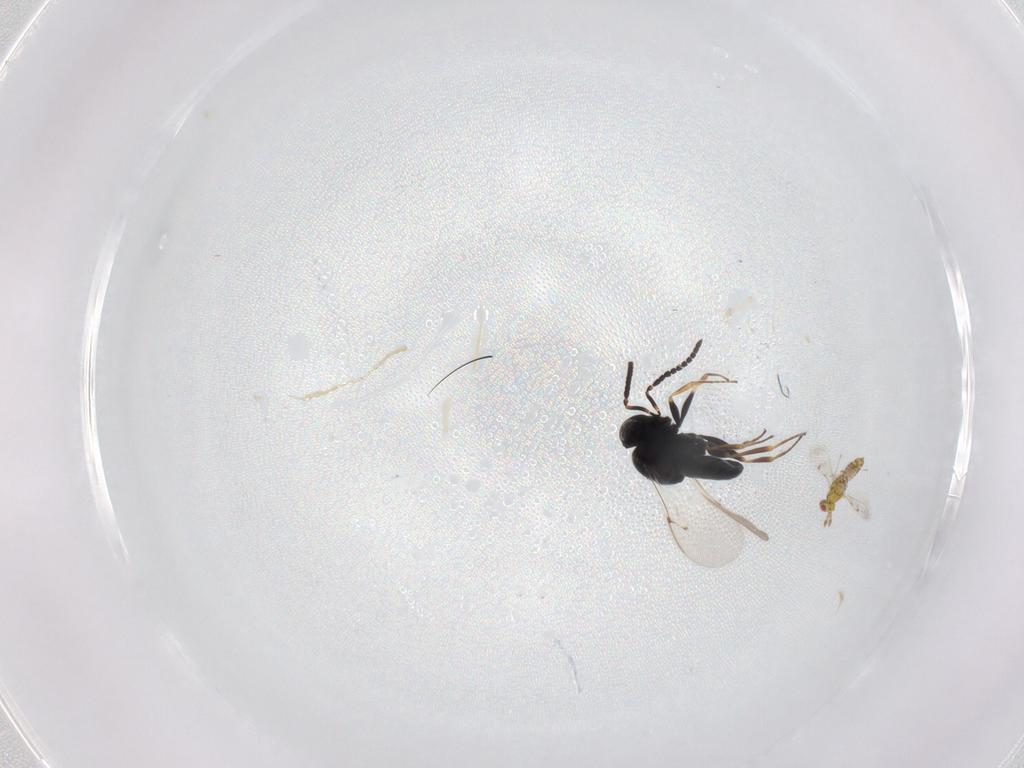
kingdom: Animalia
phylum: Arthropoda
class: Insecta
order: Hymenoptera
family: Scelionidae
